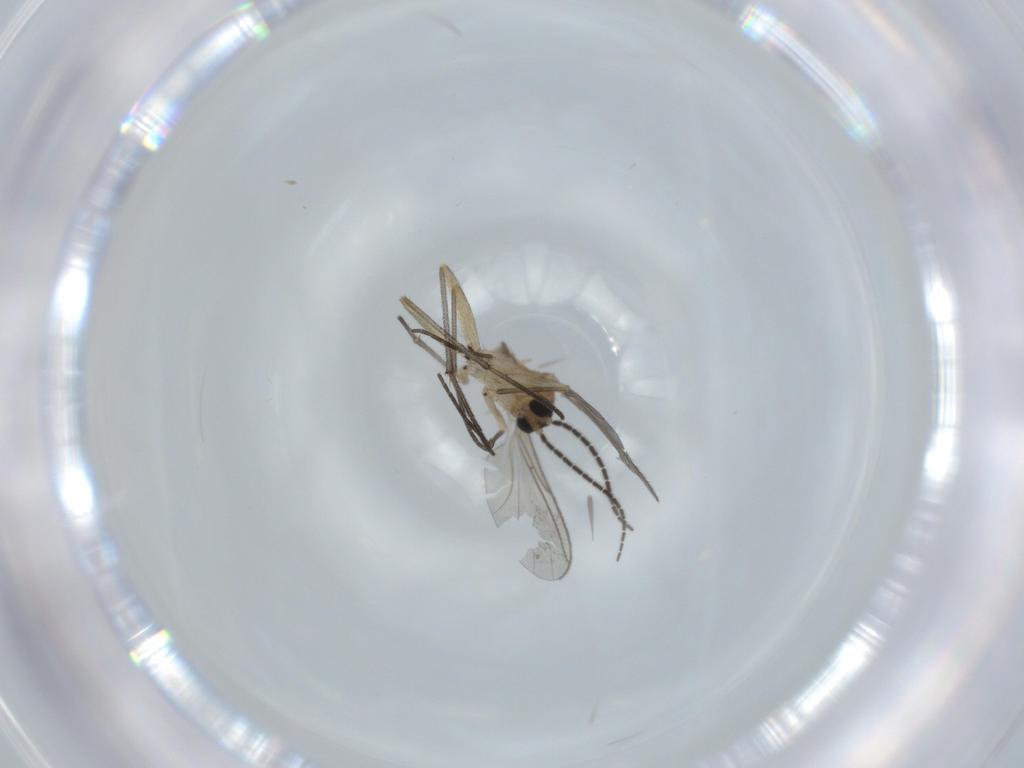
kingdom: Animalia
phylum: Arthropoda
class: Insecta
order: Diptera
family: Sciaridae
